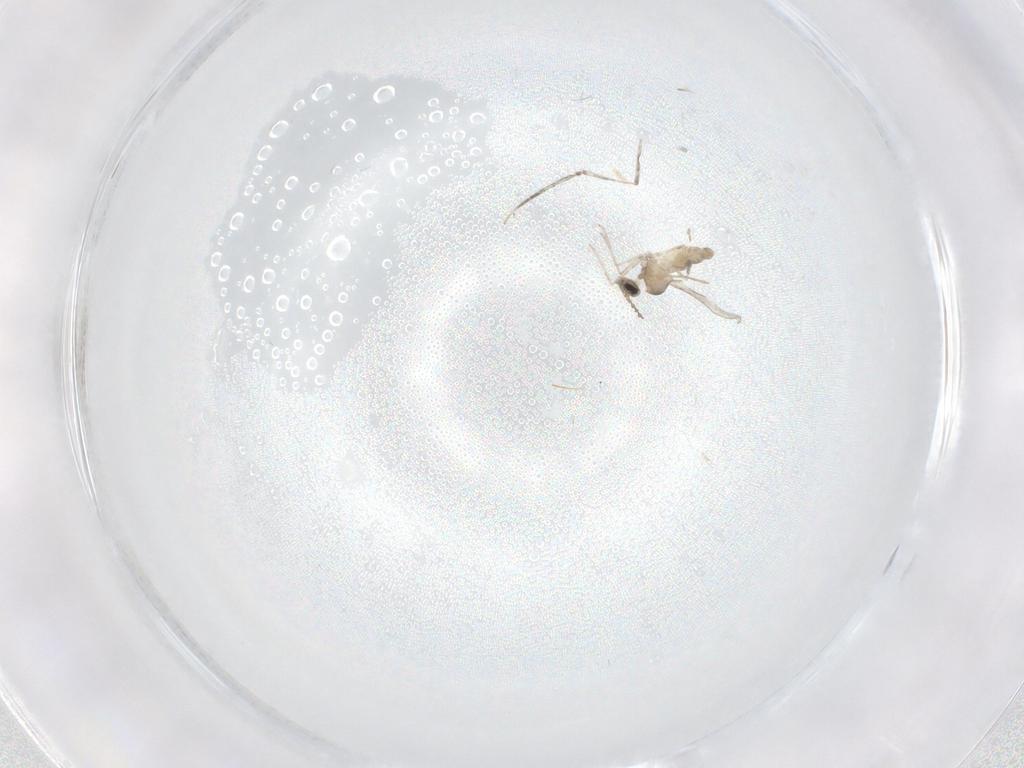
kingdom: Animalia
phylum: Arthropoda
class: Insecta
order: Diptera
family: Cecidomyiidae
